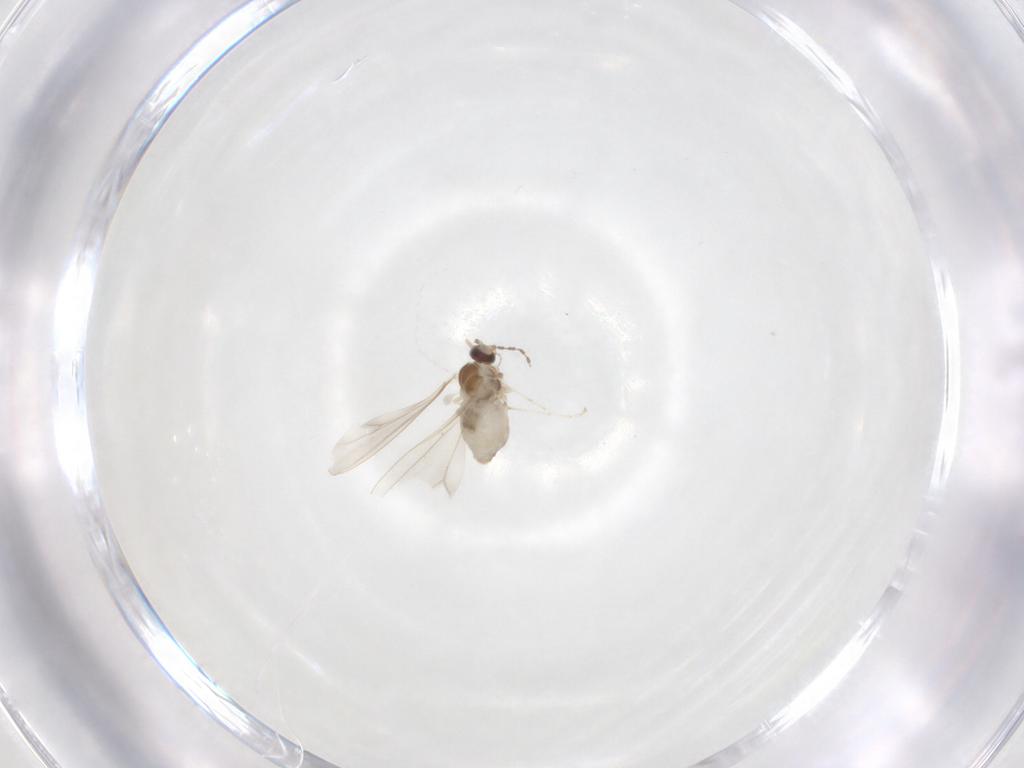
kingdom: Animalia
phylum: Arthropoda
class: Insecta
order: Diptera
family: Cecidomyiidae
